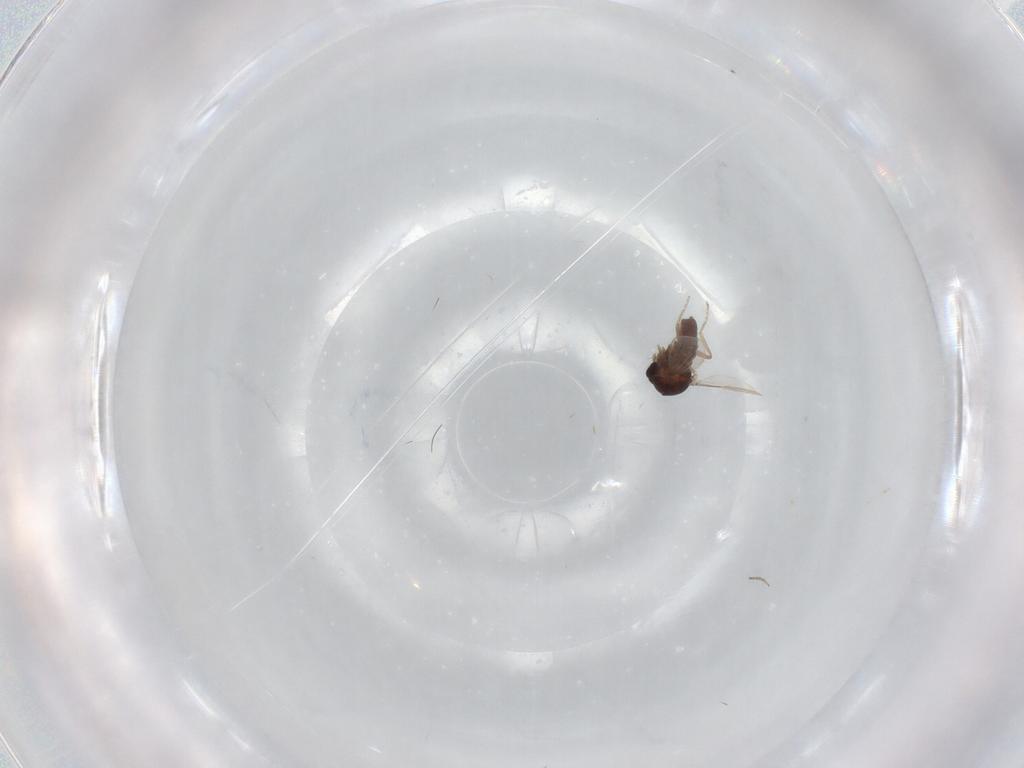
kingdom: Animalia
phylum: Arthropoda
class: Insecta
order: Diptera
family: Ceratopogonidae
